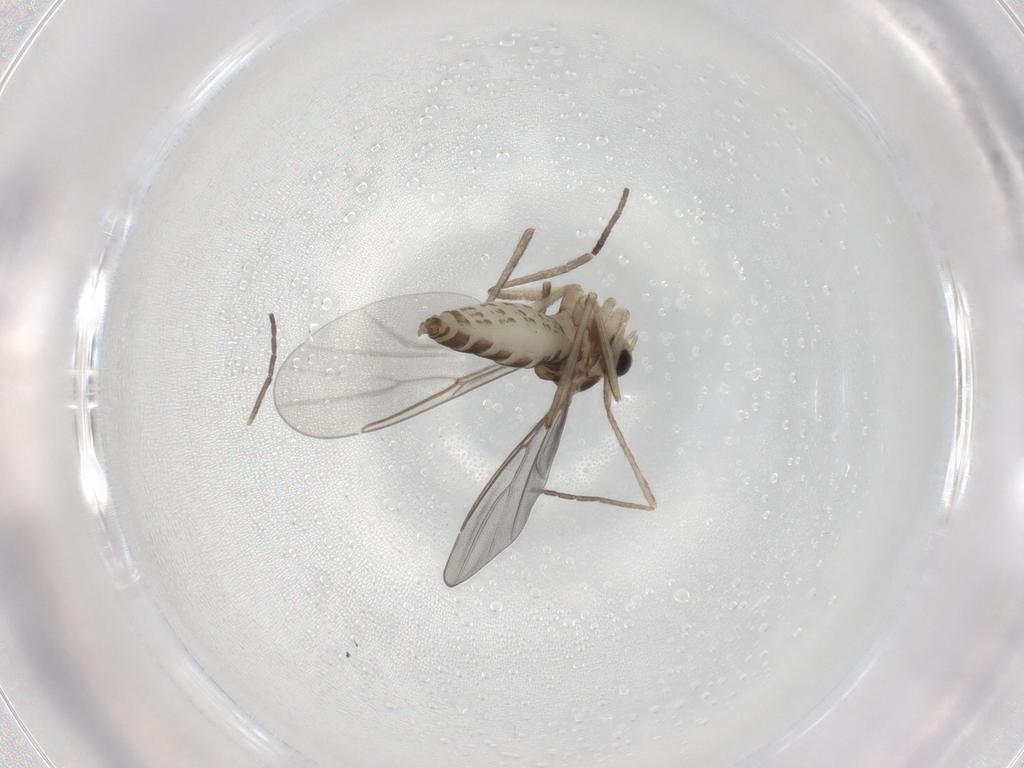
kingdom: Animalia
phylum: Arthropoda
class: Insecta
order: Diptera
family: Cecidomyiidae
